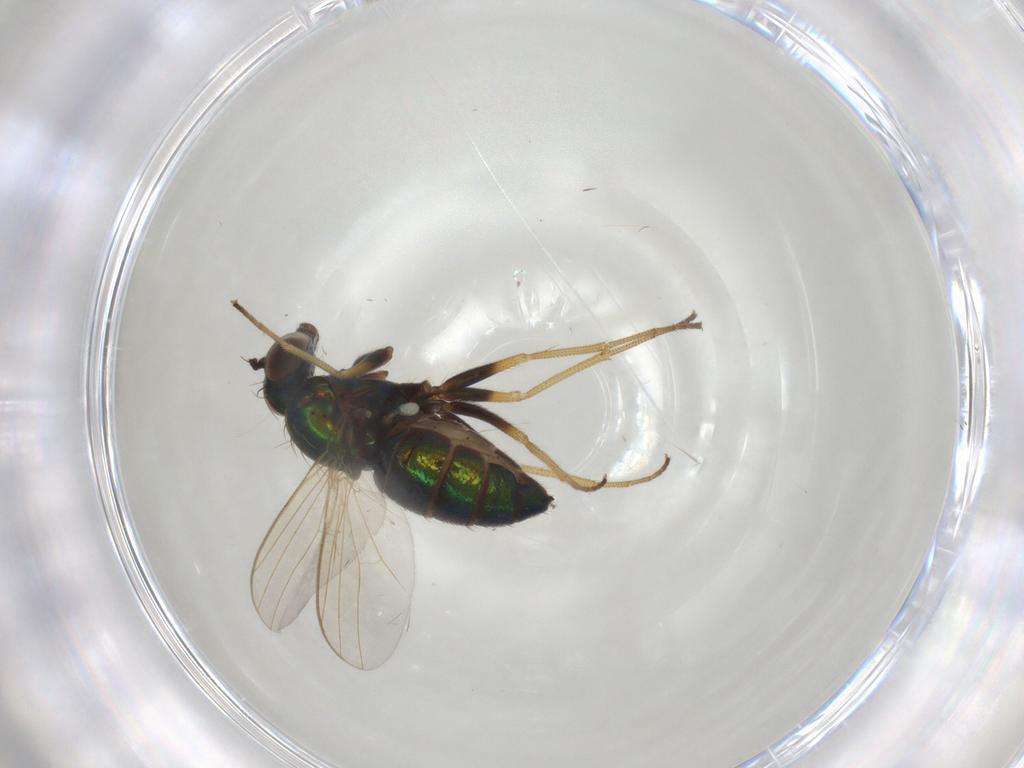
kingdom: Animalia
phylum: Arthropoda
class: Insecta
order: Diptera
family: Dolichopodidae
